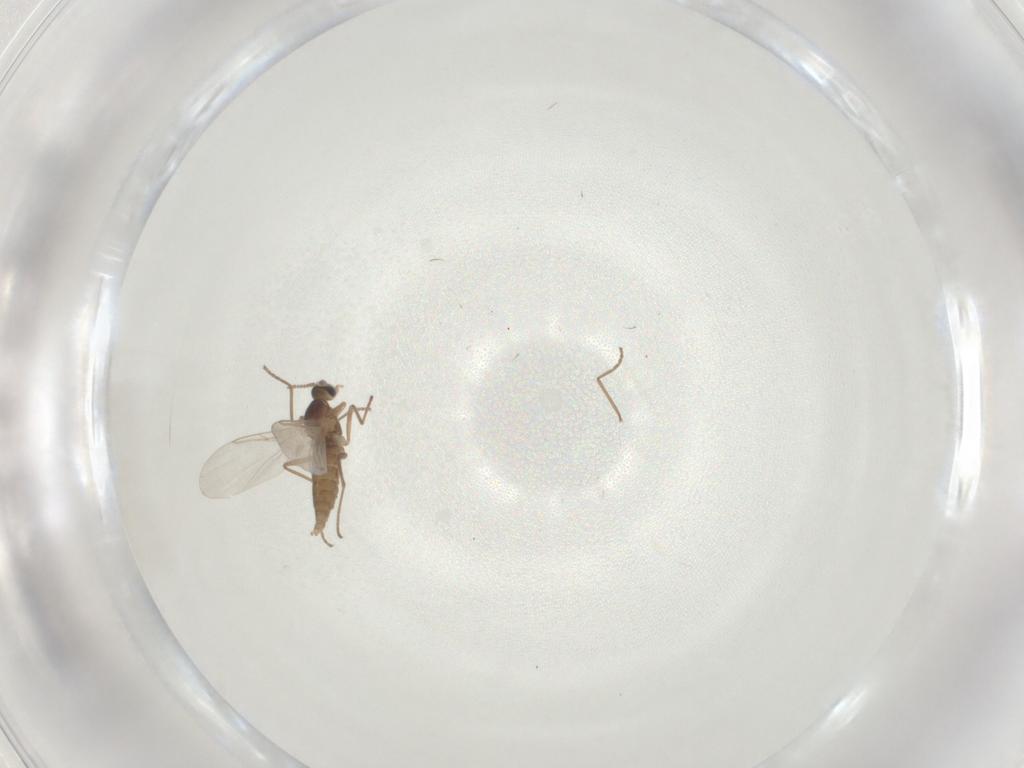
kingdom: Animalia
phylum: Arthropoda
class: Insecta
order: Diptera
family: Cecidomyiidae
